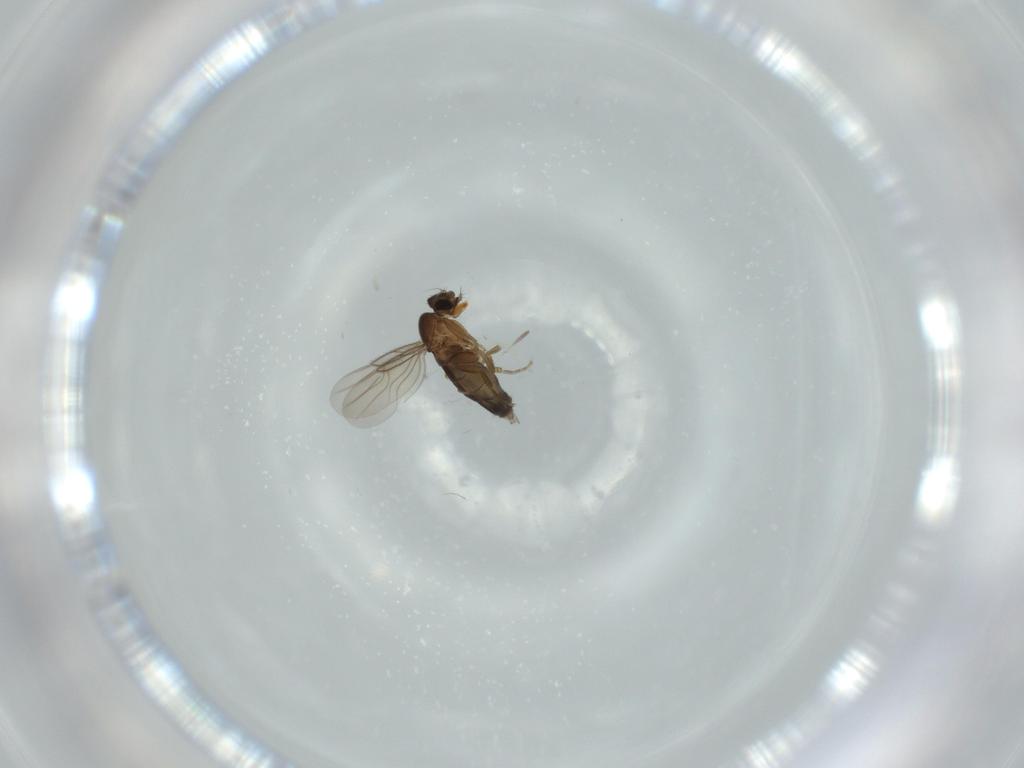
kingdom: Animalia
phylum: Arthropoda
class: Insecta
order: Diptera
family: Phoridae
